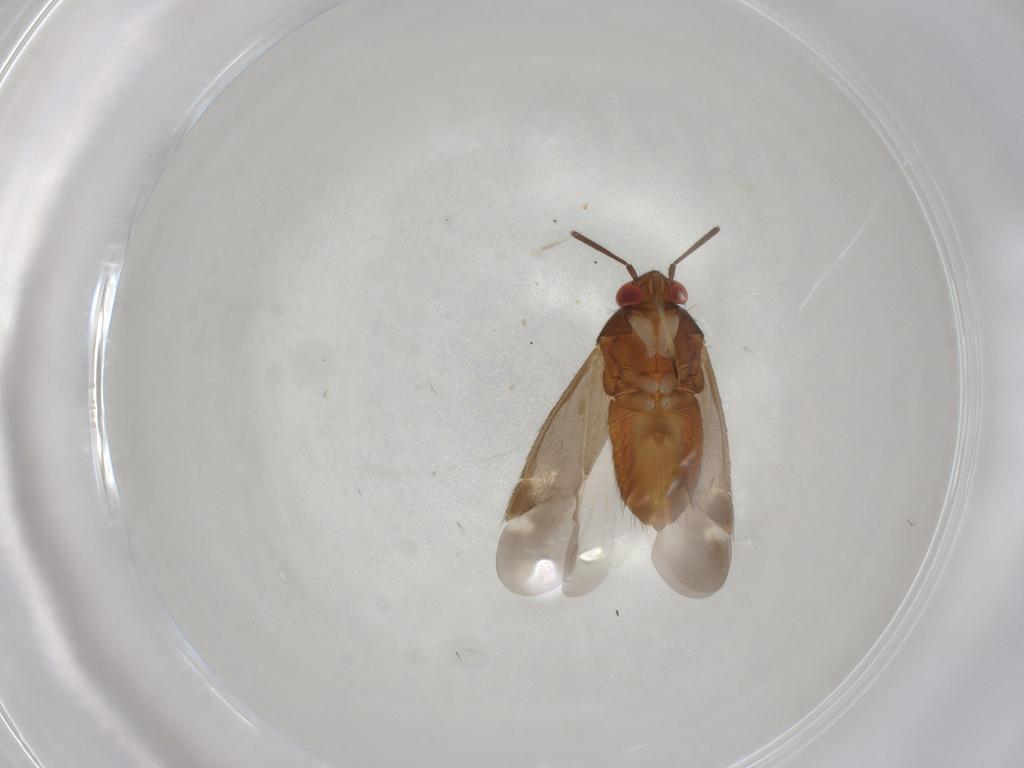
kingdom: Animalia
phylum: Arthropoda
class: Insecta
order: Hemiptera
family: Miridae
